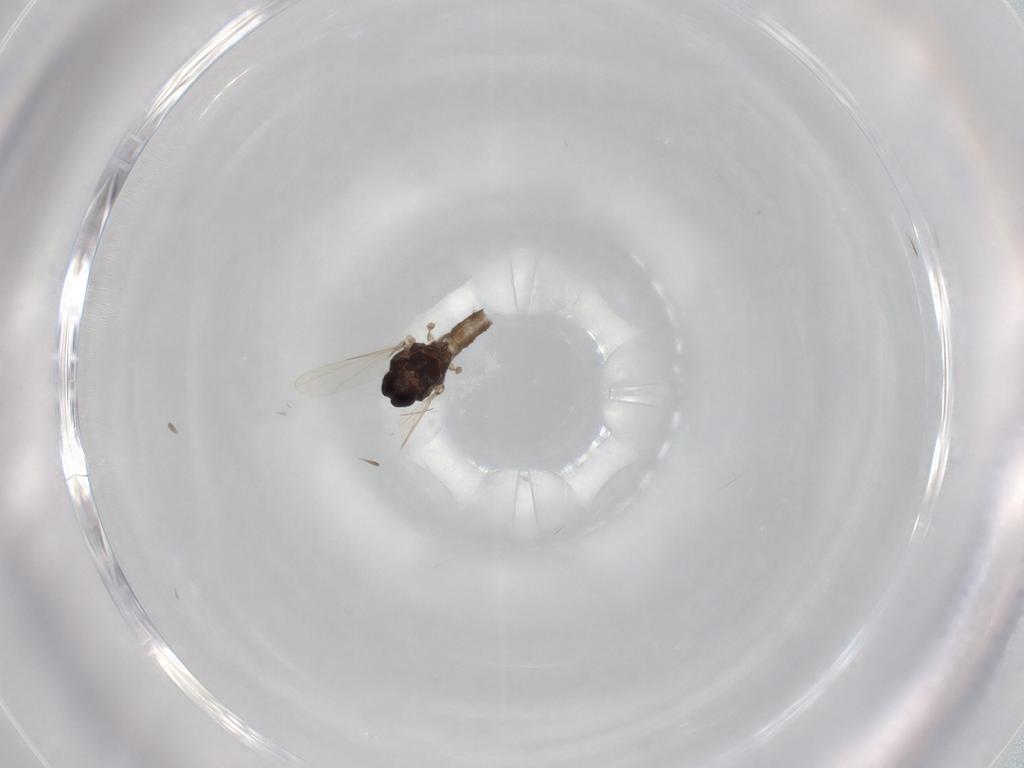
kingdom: Animalia
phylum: Arthropoda
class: Insecta
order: Diptera
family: Ceratopogonidae
